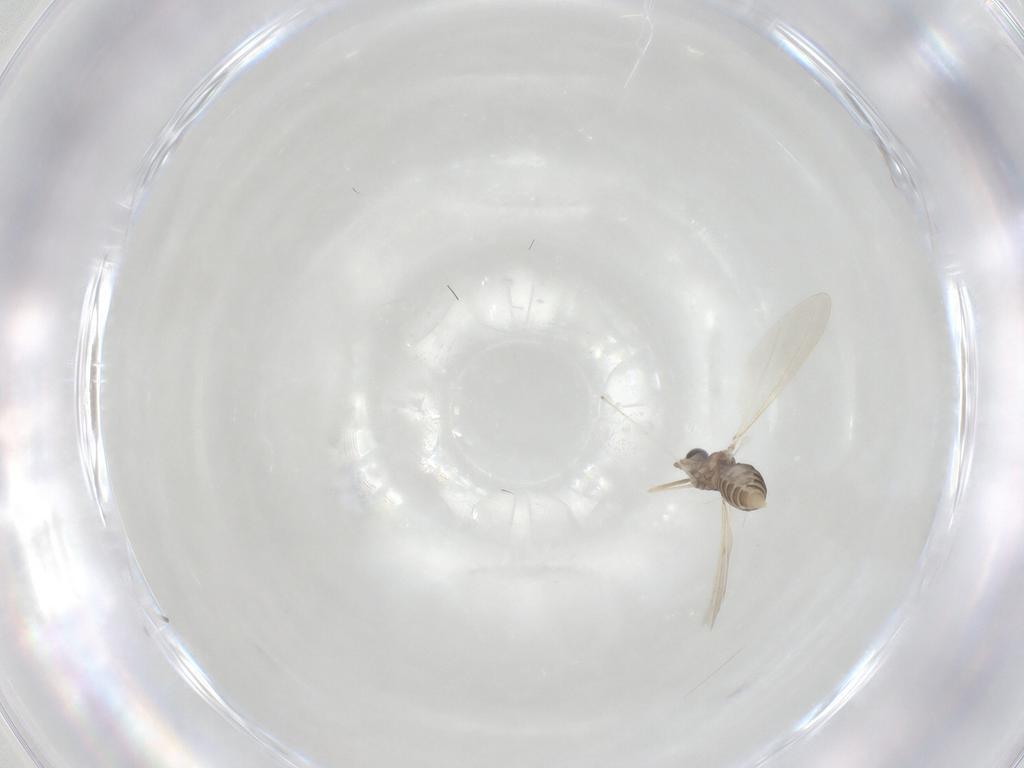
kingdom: Animalia
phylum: Arthropoda
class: Insecta
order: Diptera
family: Cecidomyiidae
